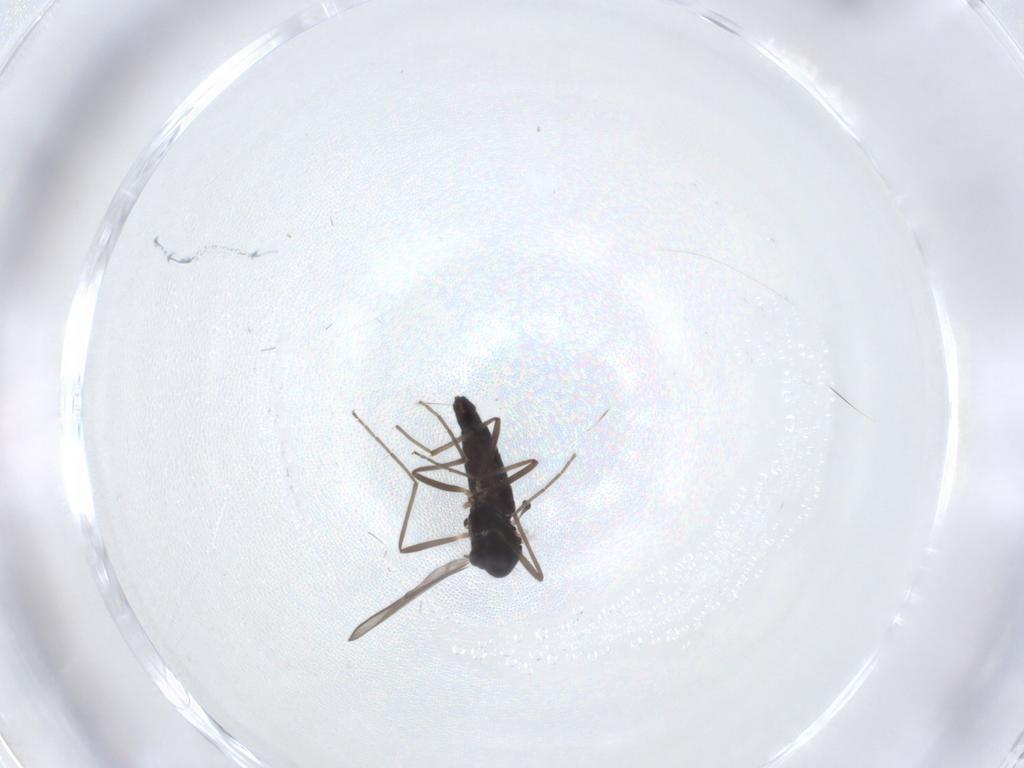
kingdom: Animalia
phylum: Arthropoda
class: Insecta
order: Diptera
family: Chironomidae
